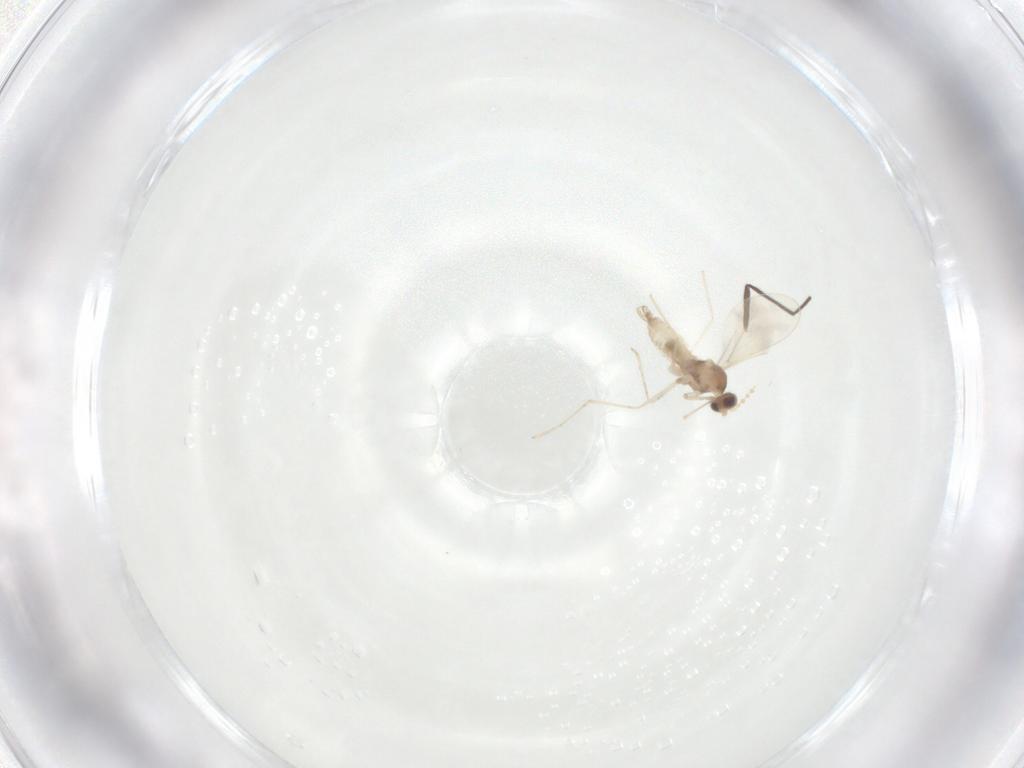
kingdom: Animalia
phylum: Arthropoda
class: Insecta
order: Diptera
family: Cecidomyiidae
